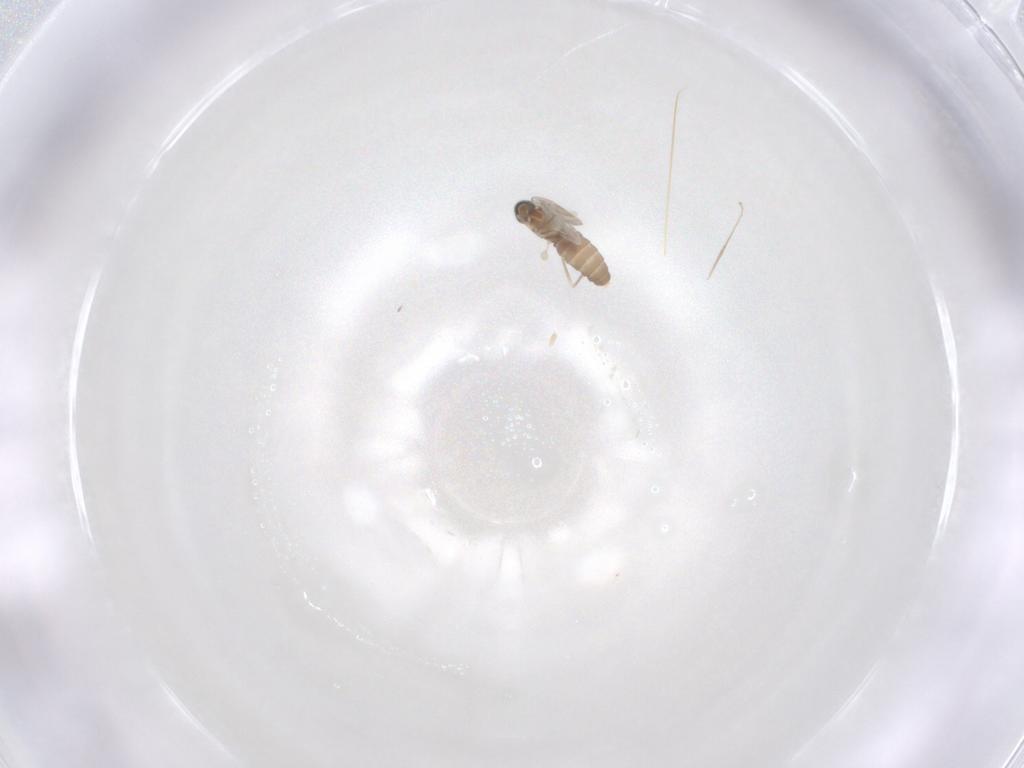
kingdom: Animalia
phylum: Arthropoda
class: Insecta
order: Diptera
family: Cecidomyiidae
